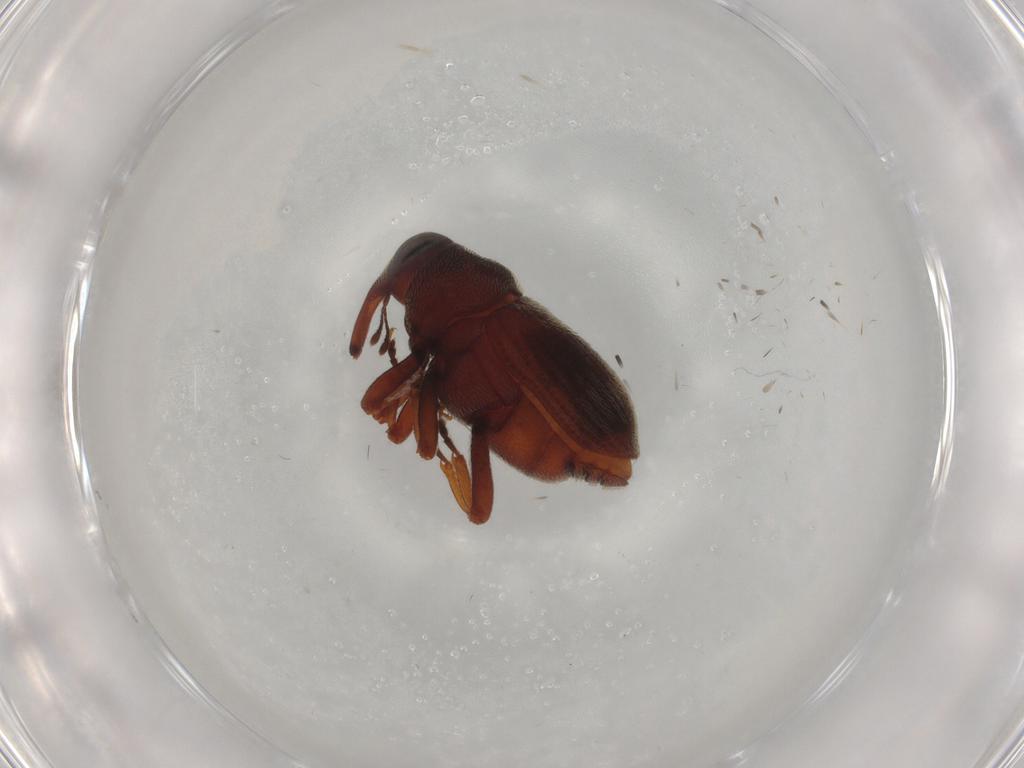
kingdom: Animalia
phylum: Arthropoda
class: Insecta
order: Coleoptera
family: Curculionidae
